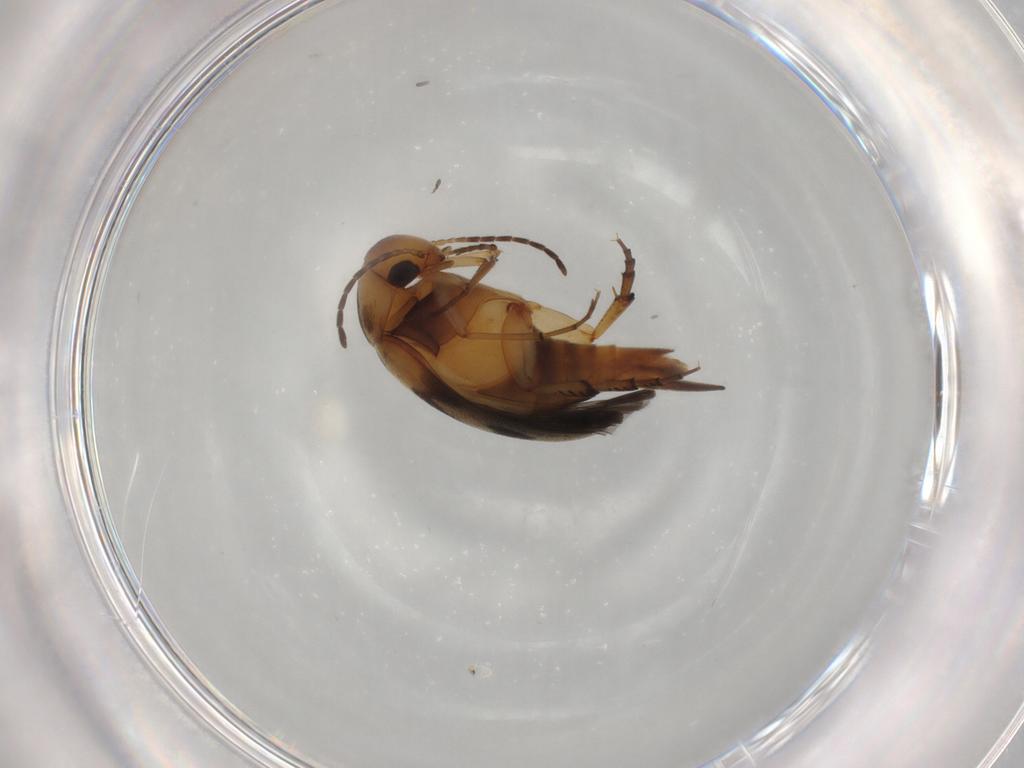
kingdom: Animalia
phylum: Arthropoda
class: Insecta
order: Coleoptera
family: Mordellidae
